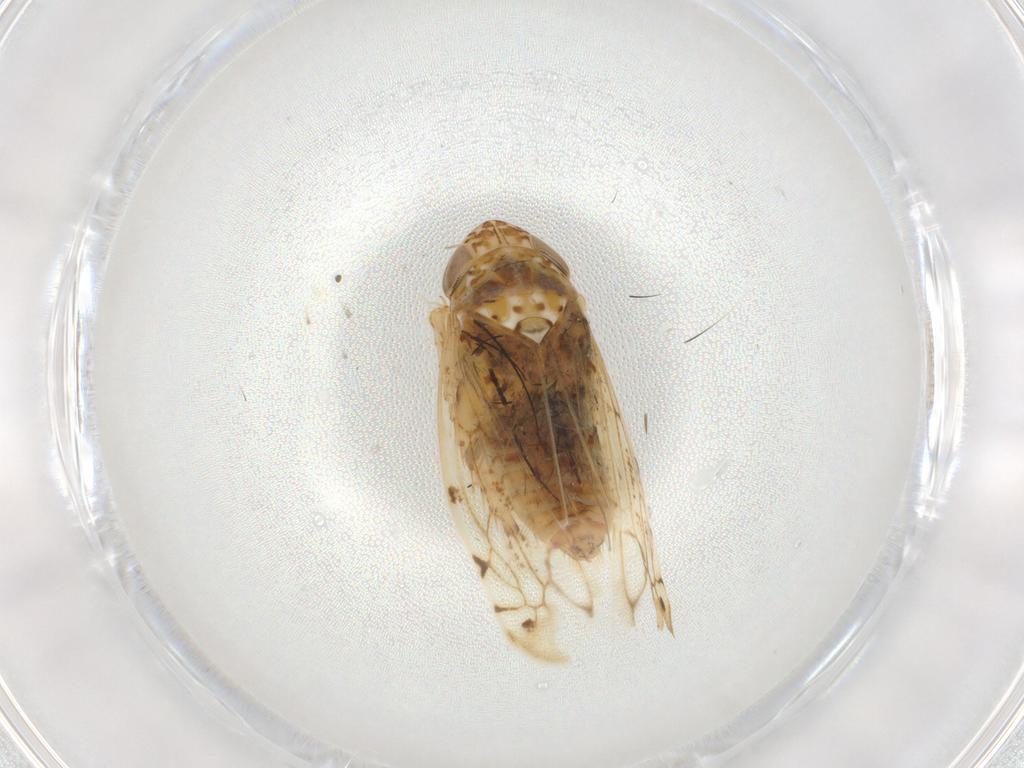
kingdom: Animalia
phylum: Arthropoda
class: Insecta
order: Hemiptera
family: Cicadellidae
